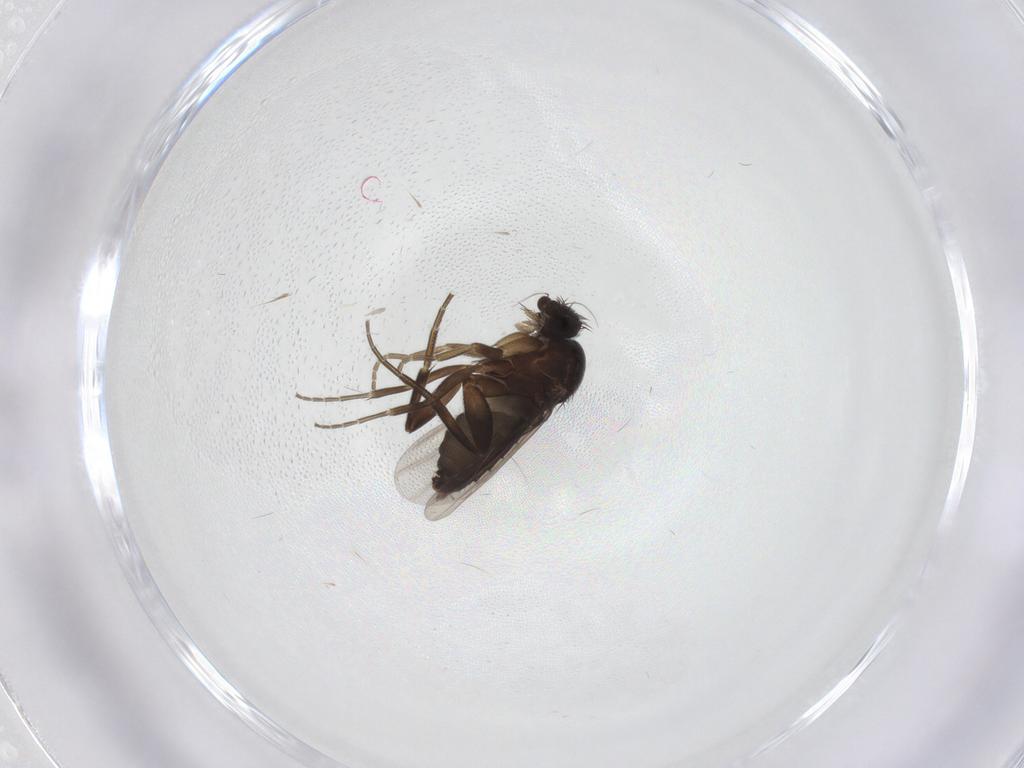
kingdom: Animalia
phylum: Arthropoda
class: Insecta
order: Diptera
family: Phoridae
